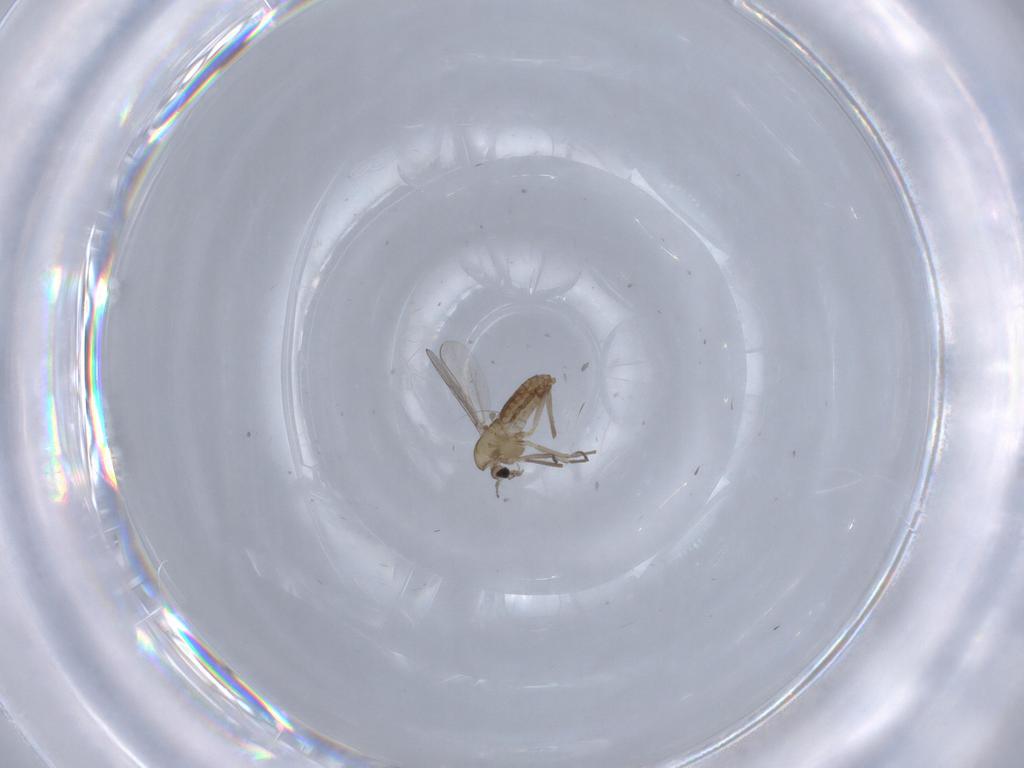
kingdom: Animalia
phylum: Arthropoda
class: Insecta
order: Diptera
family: Chironomidae
